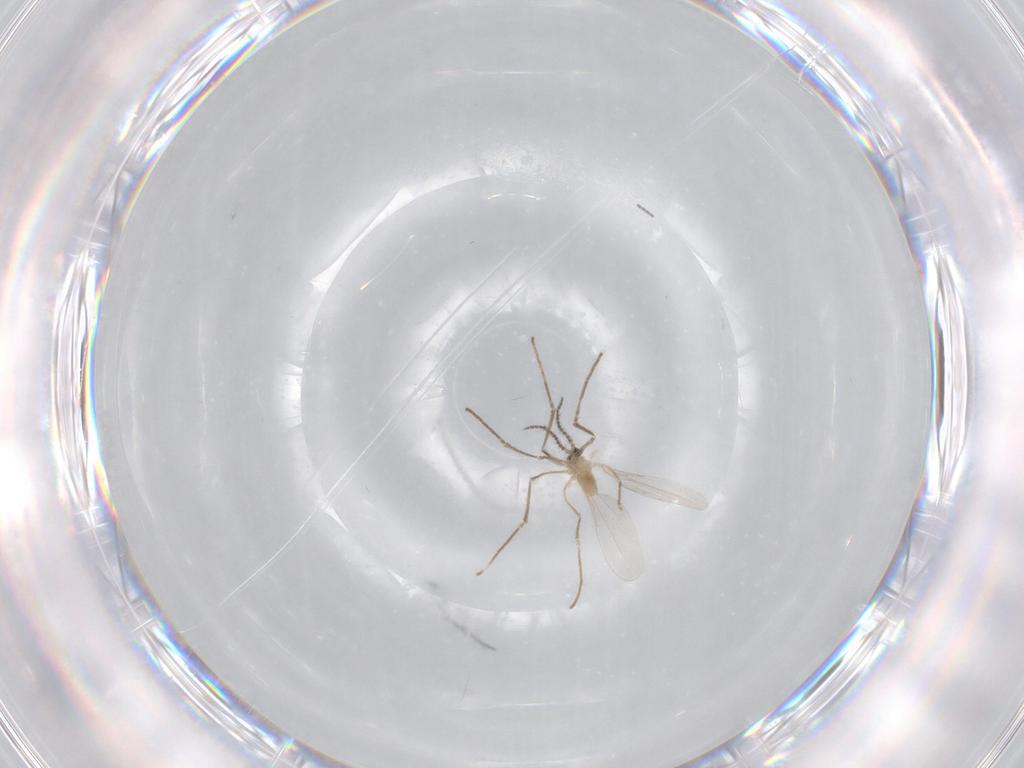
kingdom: Animalia
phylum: Arthropoda
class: Insecta
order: Diptera
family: Cecidomyiidae
